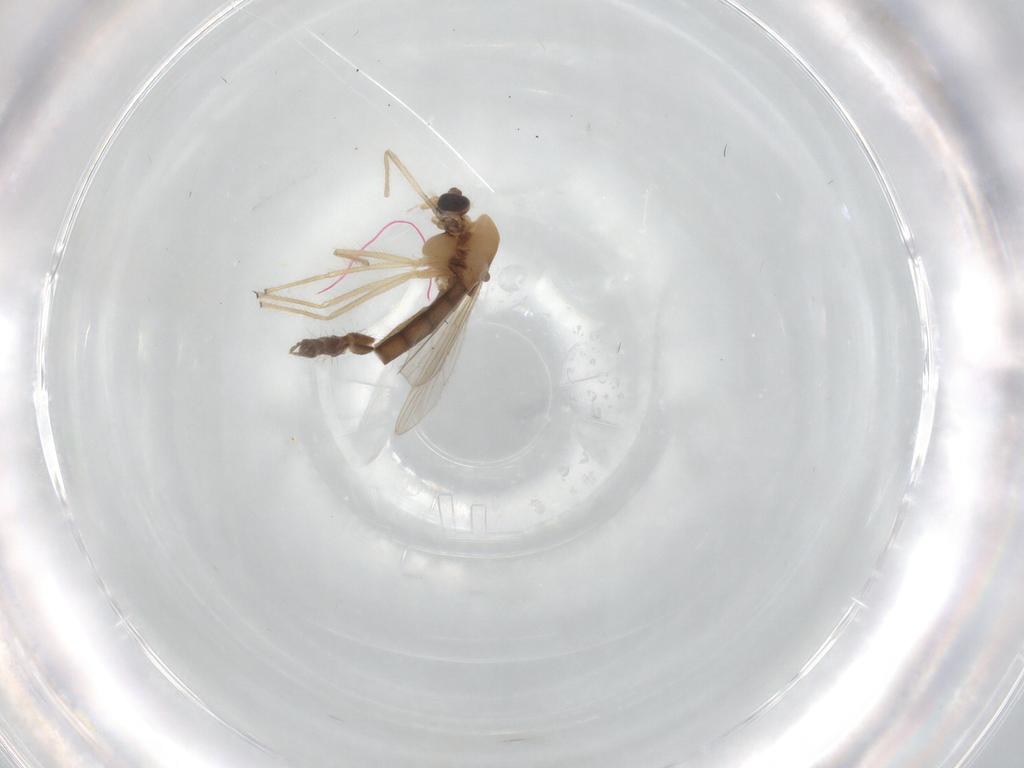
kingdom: Animalia
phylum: Arthropoda
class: Insecta
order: Diptera
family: Chironomidae
